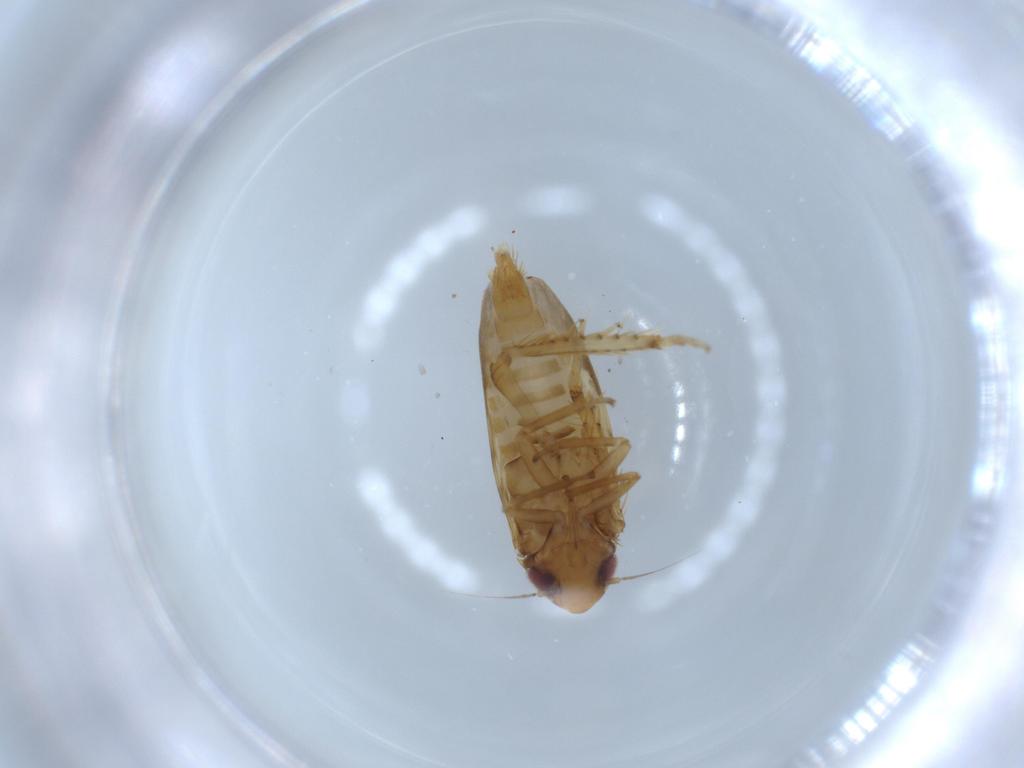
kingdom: Animalia
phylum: Arthropoda
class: Insecta
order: Hemiptera
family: Cicadellidae
